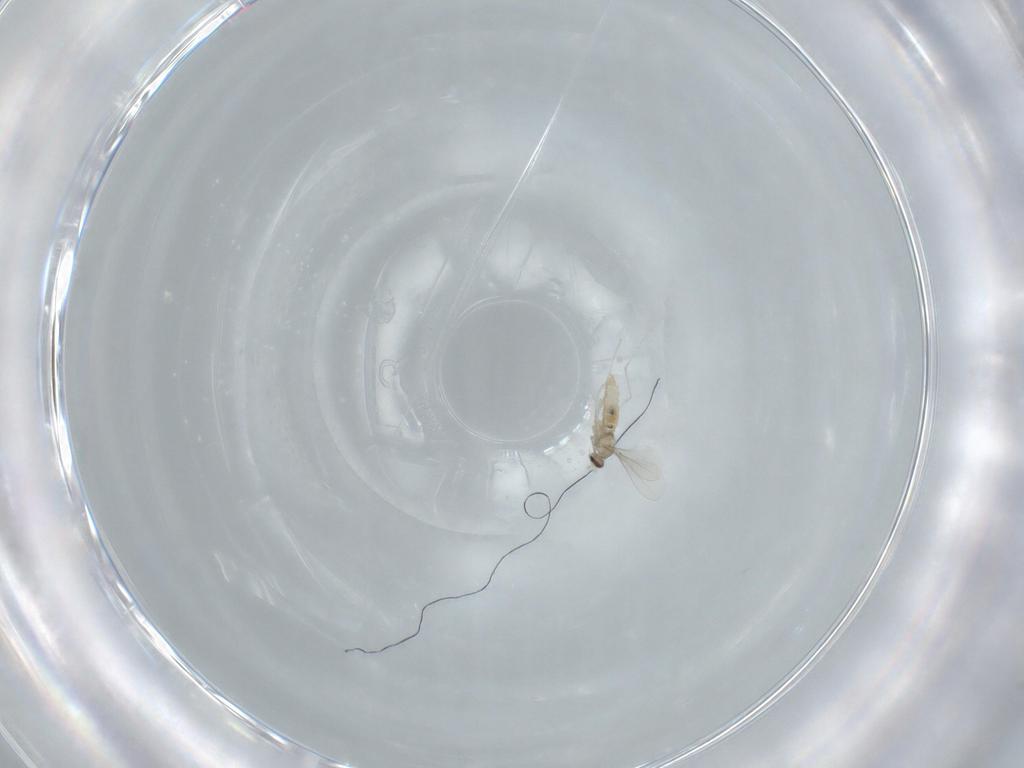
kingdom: Animalia
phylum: Arthropoda
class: Insecta
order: Diptera
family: Cecidomyiidae
